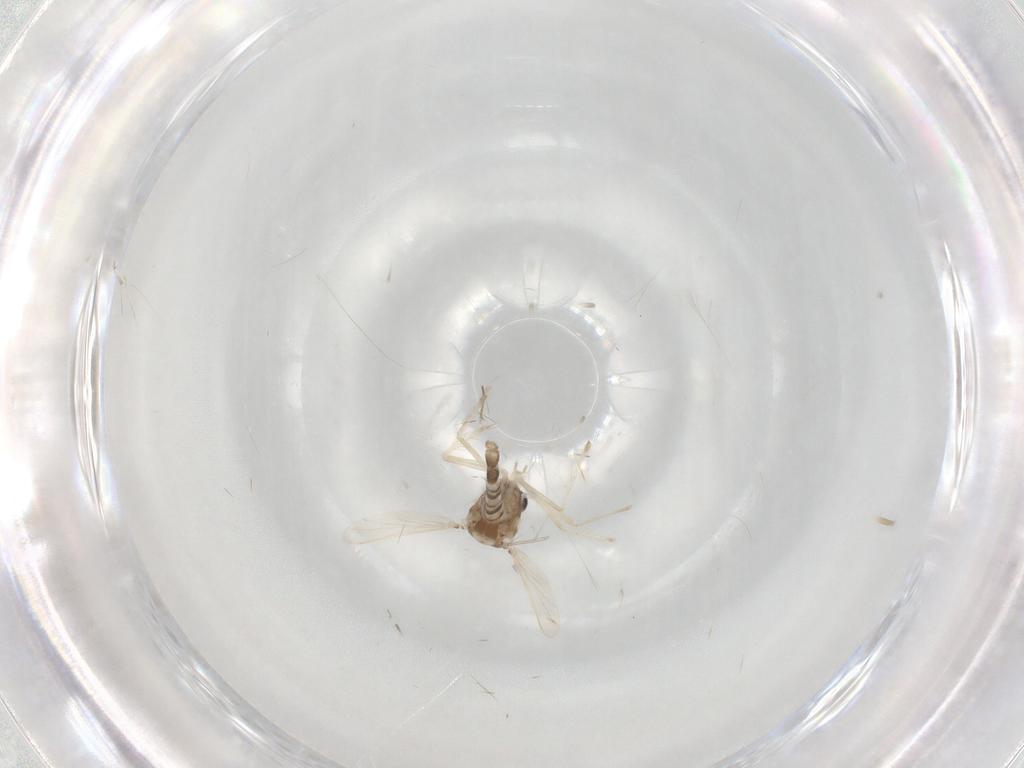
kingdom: Animalia
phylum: Arthropoda
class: Insecta
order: Diptera
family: Chironomidae
